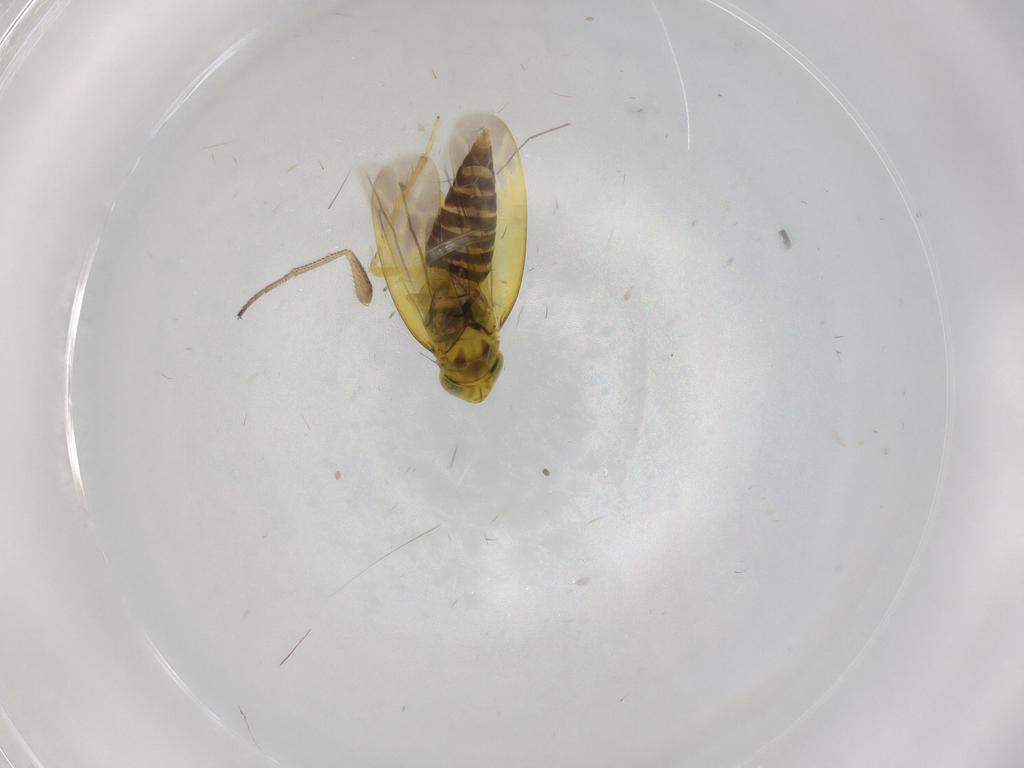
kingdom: Animalia
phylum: Arthropoda
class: Insecta
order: Hemiptera
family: Cicadellidae
